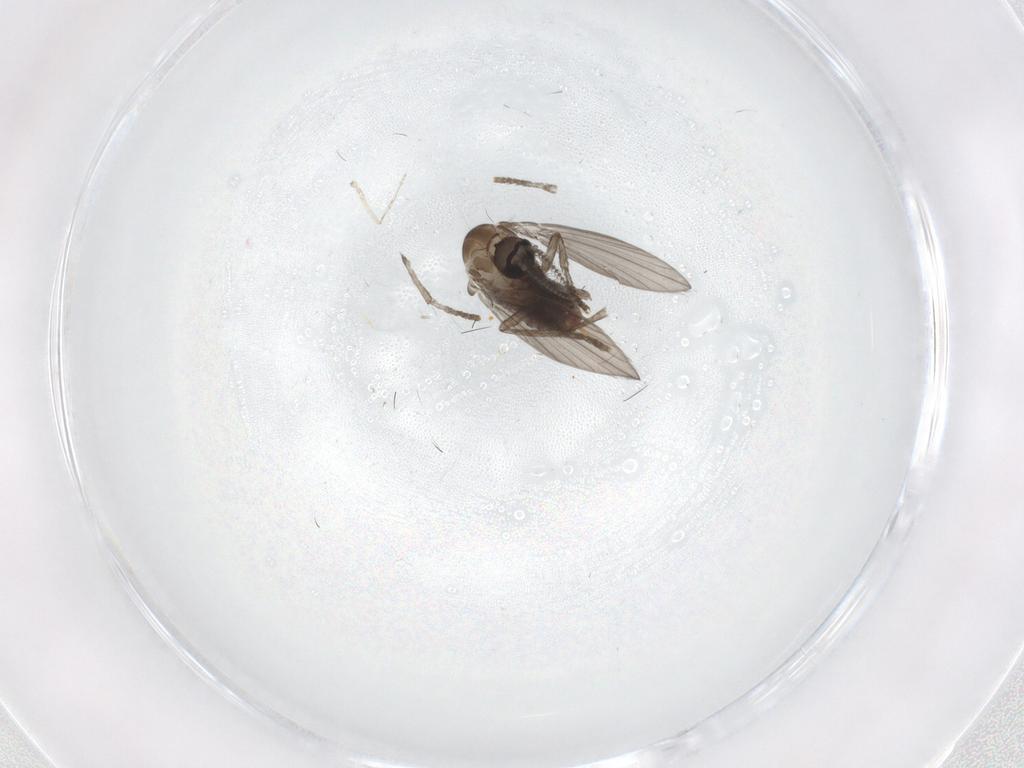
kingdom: Animalia
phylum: Arthropoda
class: Insecta
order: Diptera
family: Psychodidae
